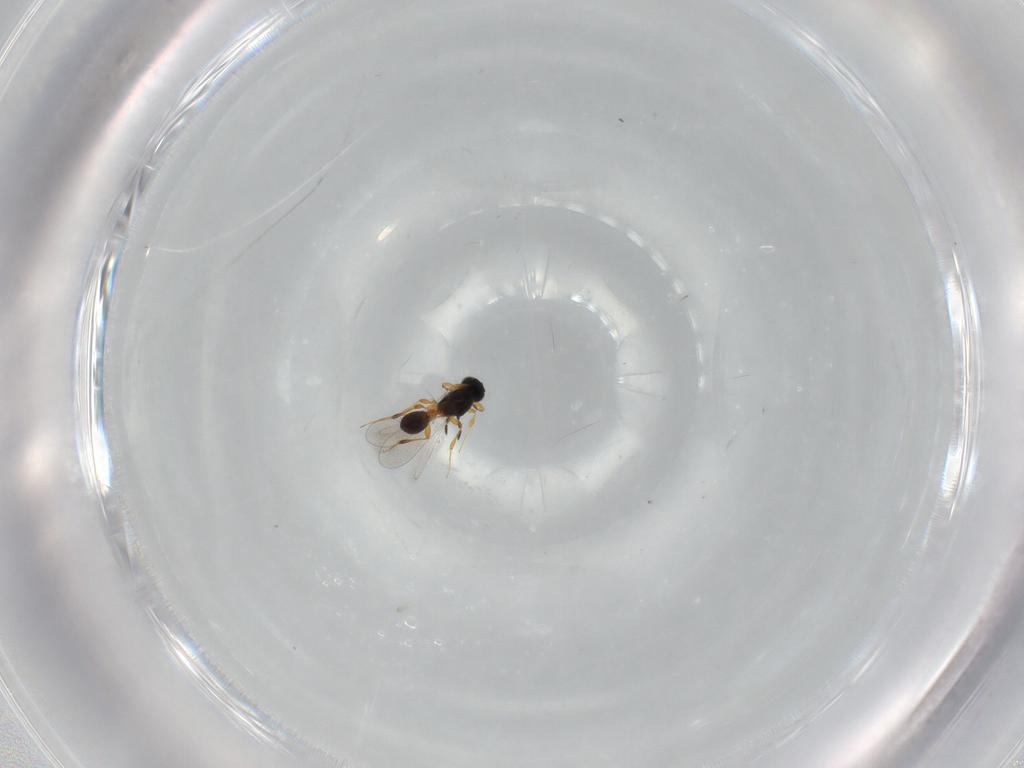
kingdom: Animalia
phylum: Arthropoda
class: Insecta
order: Hymenoptera
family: Platygastridae
